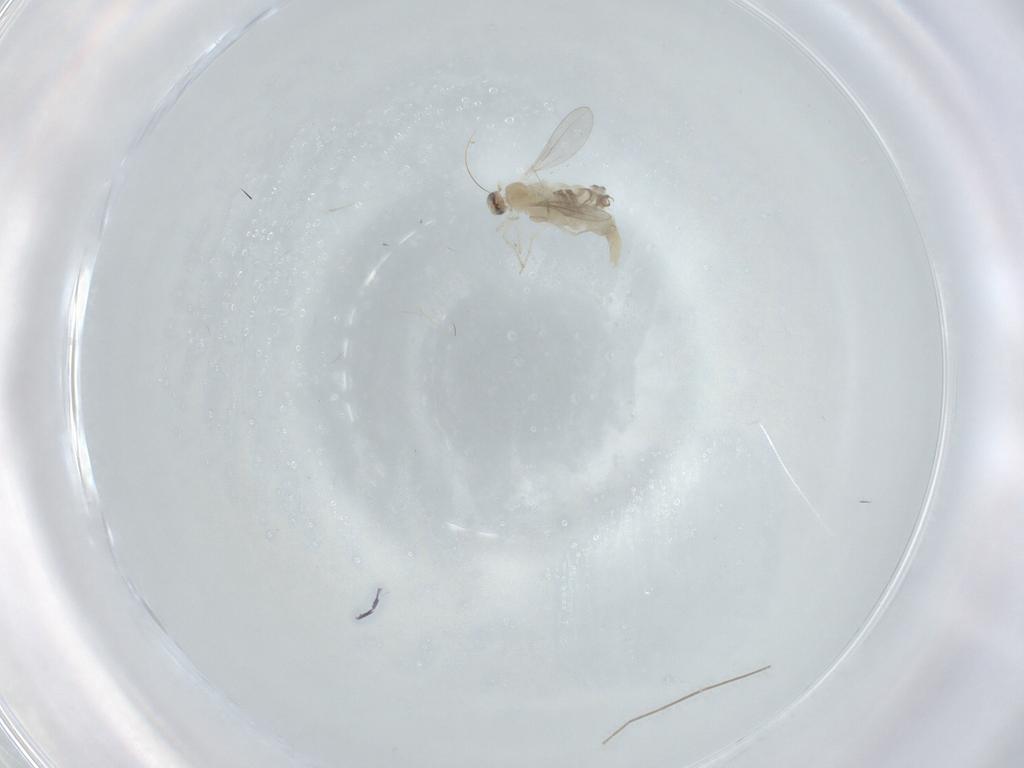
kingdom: Animalia
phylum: Arthropoda
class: Insecta
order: Diptera
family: Cecidomyiidae
